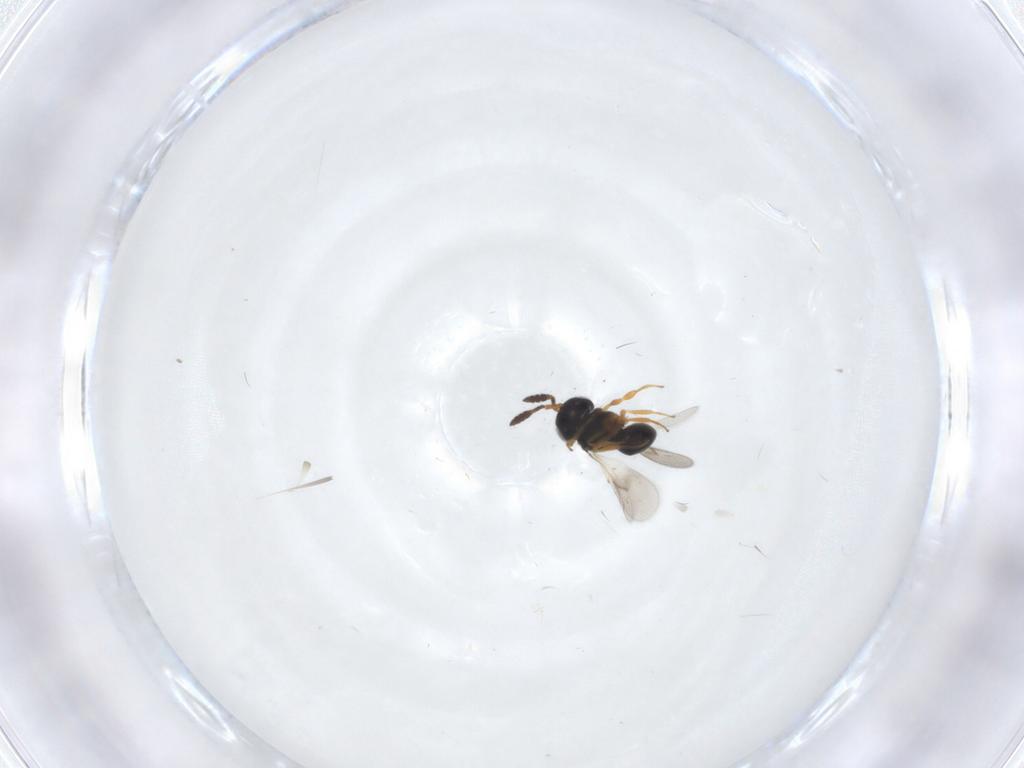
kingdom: Animalia
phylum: Arthropoda
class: Insecta
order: Hymenoptera
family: Scelionidae
